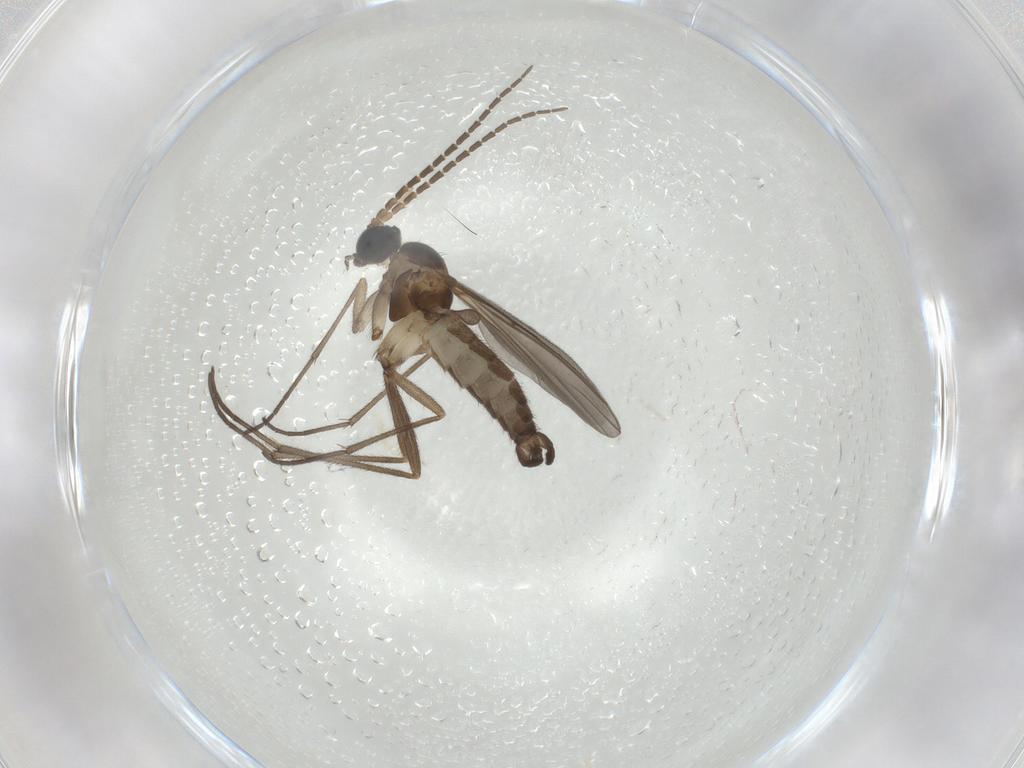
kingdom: Animalia
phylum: Arthropoda
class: Insecta
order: Diptera
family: Sciaridae
